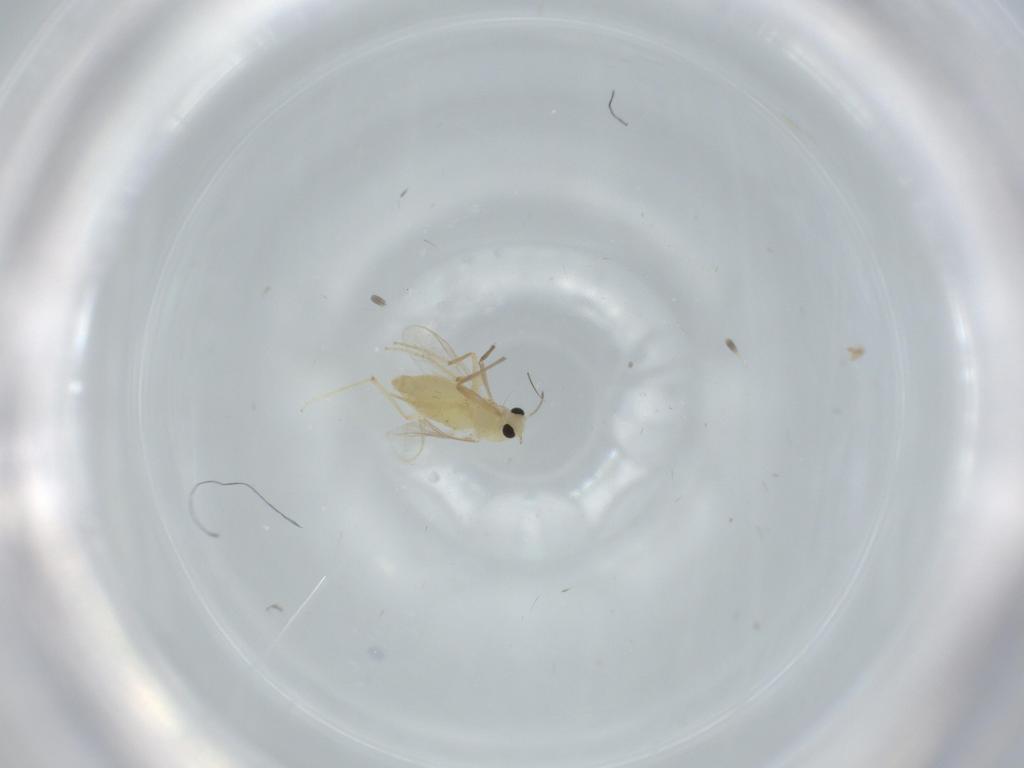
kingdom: Animalia
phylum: Arthropoda
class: Insecta
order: Diptera
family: Chironomidae
